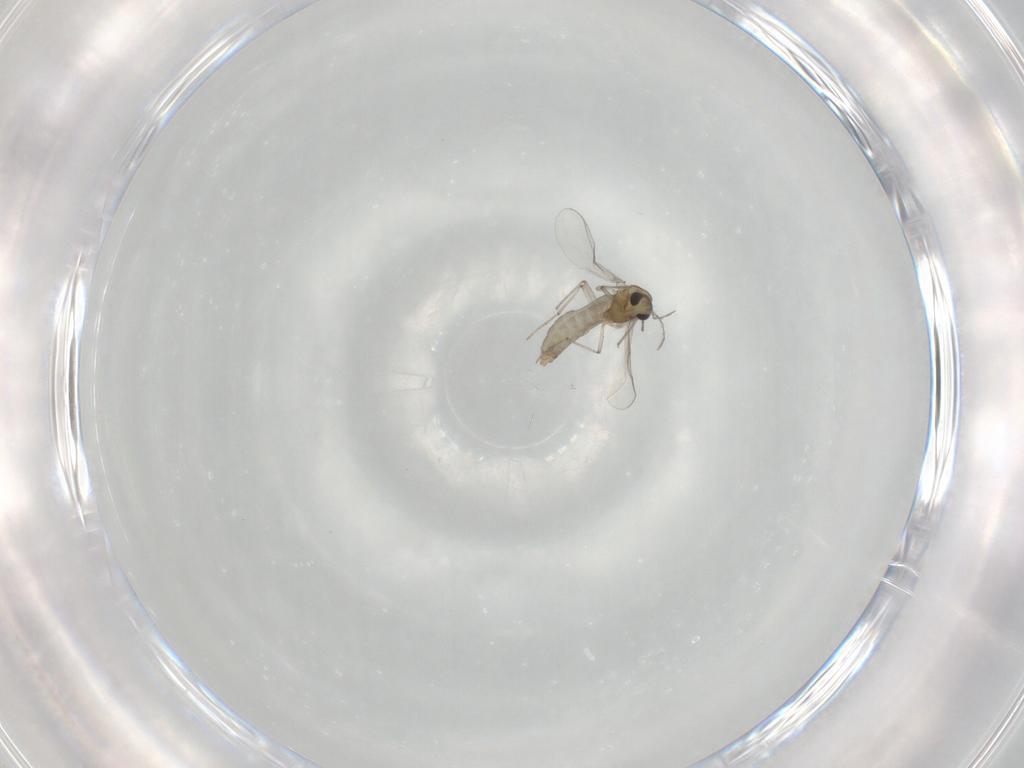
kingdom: Animalia
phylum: Arthropoda
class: Insecta
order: Diptera
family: Chironomidae
